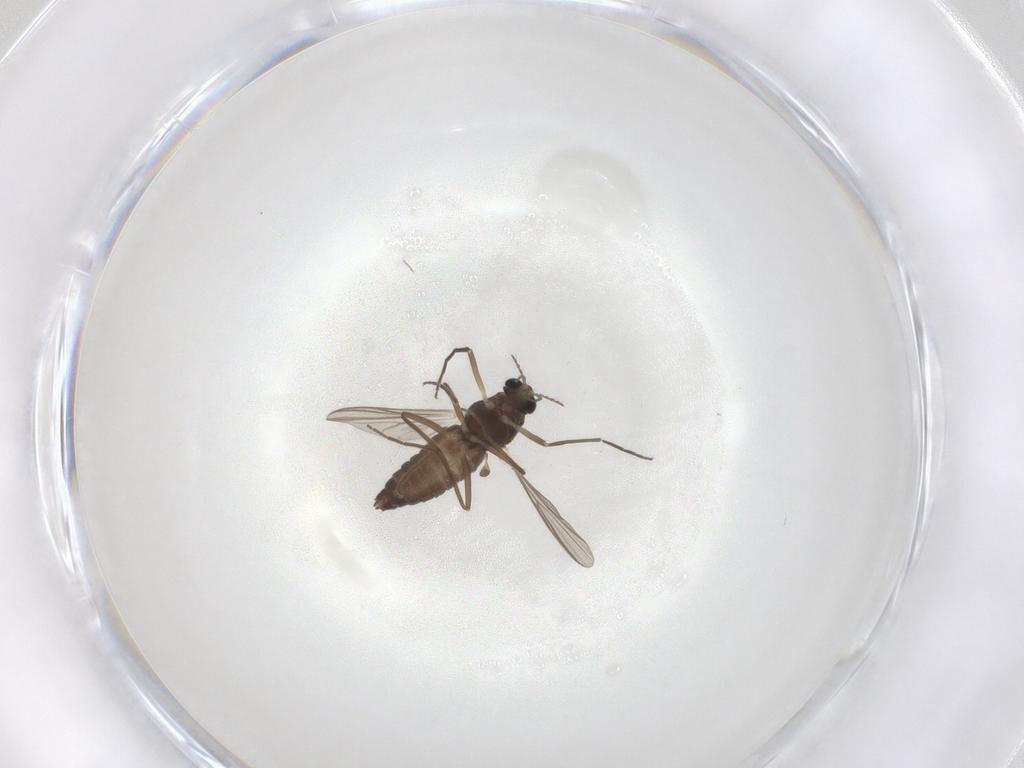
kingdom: Animalia
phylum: Arthropoda
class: Insecta
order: Diptera
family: Chironomidae
